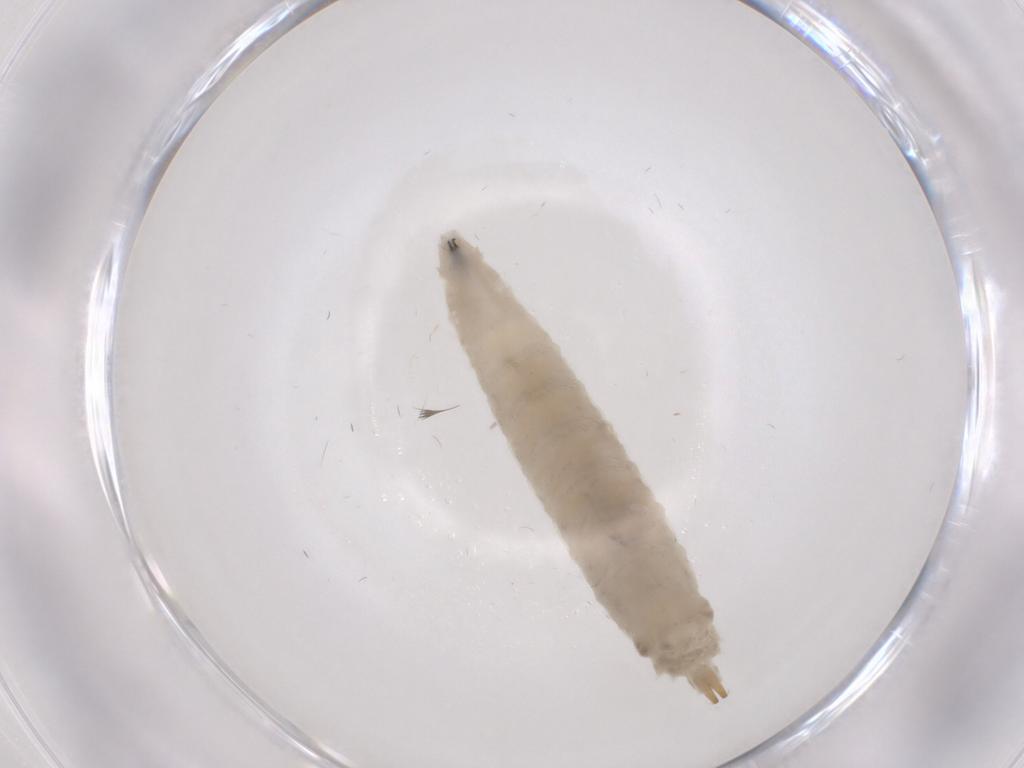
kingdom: Animalia
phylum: Arthropoda
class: Insecta
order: Diptera
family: Drosophilidae
